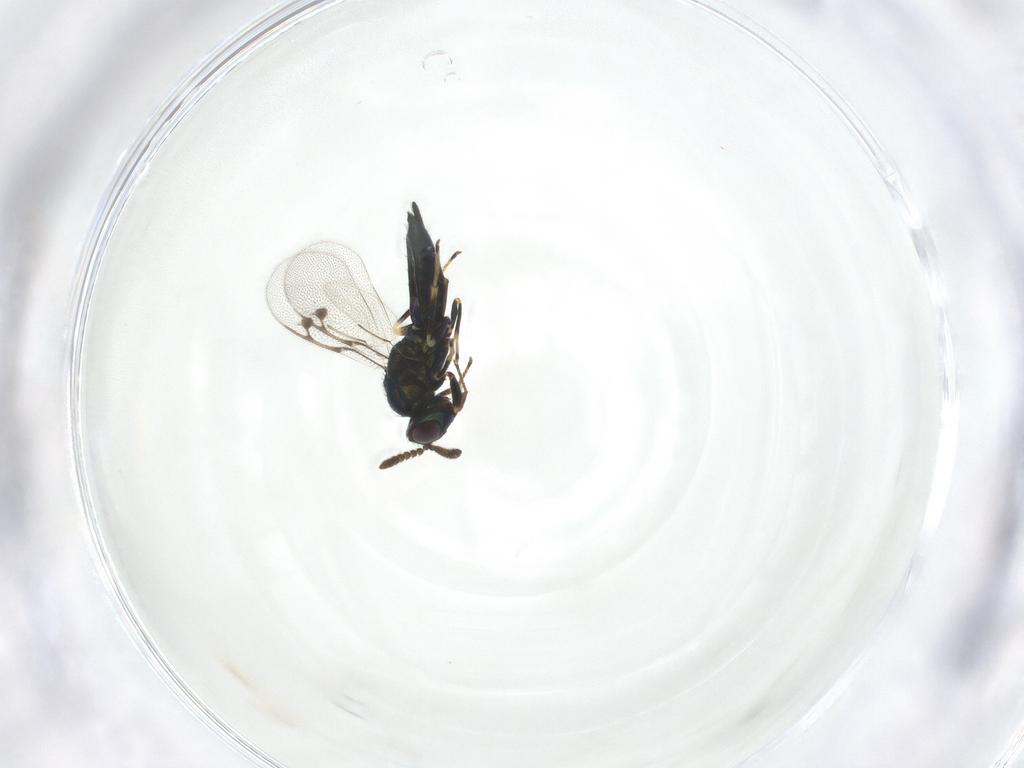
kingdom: Animalia
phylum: Arthropoda
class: Insecta
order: Hymenoptera
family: Pirenidae
